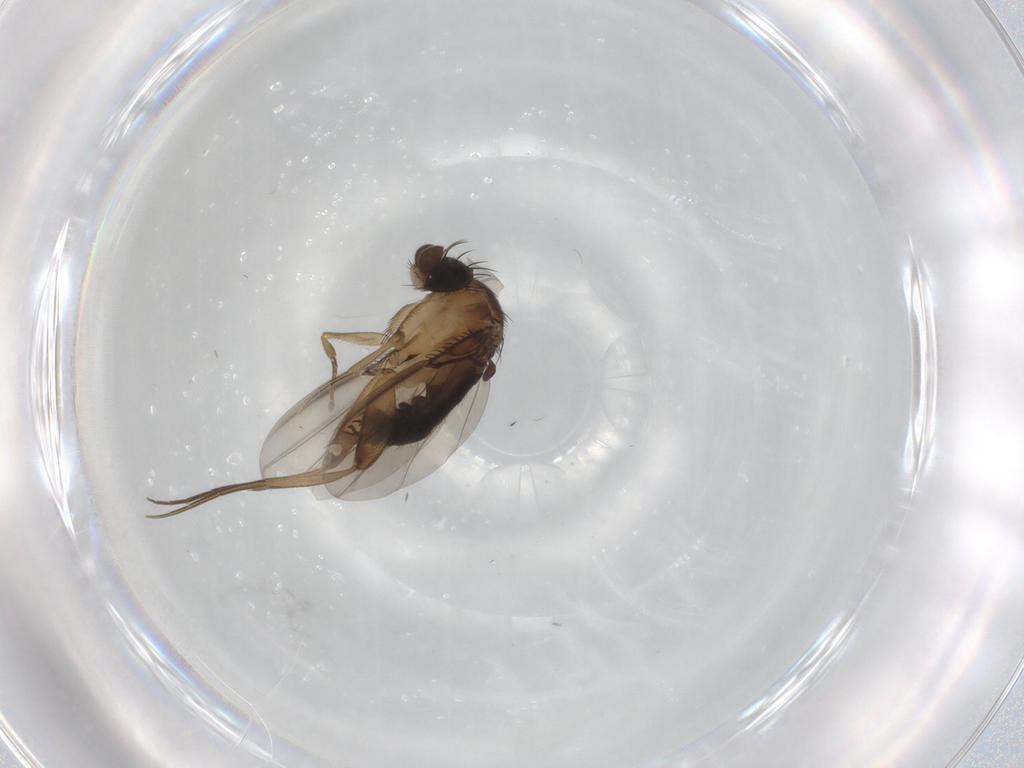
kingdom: Animalia
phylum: Arthropoda
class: Insecta
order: Diptera
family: Phoridae
